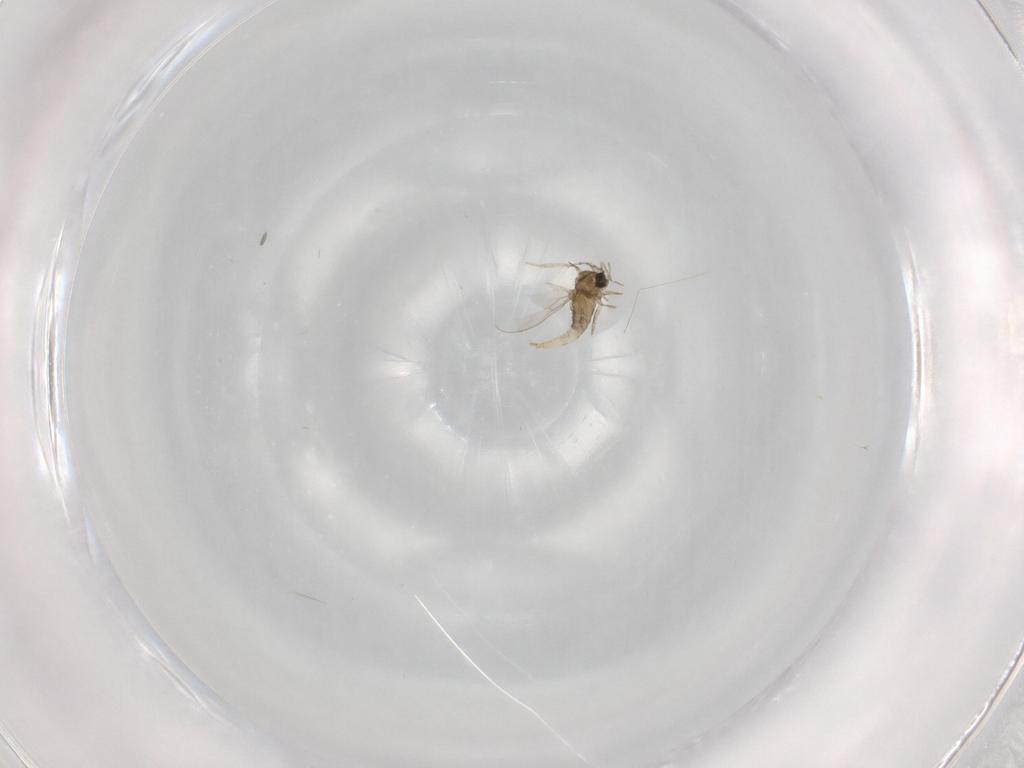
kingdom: Animalia
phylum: Arthropoda
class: Insecta
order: Diptera
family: Cecidomyiidae
